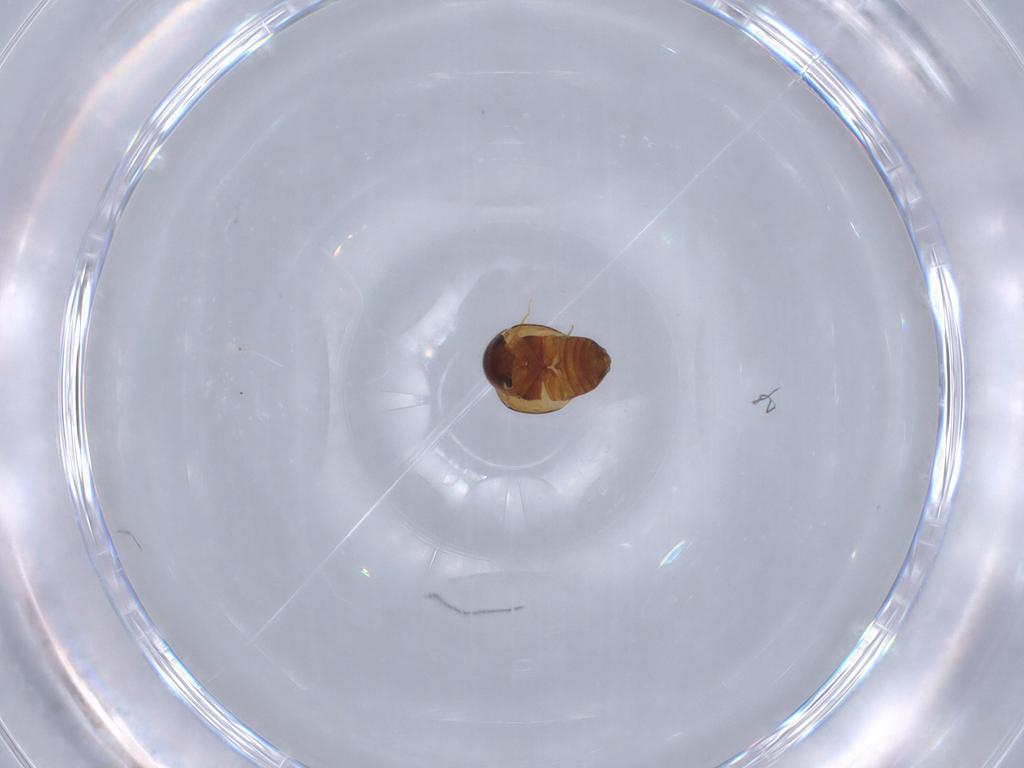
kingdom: Animalia
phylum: Arthropoda
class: Insecta
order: Coleoptera
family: Clambidae
